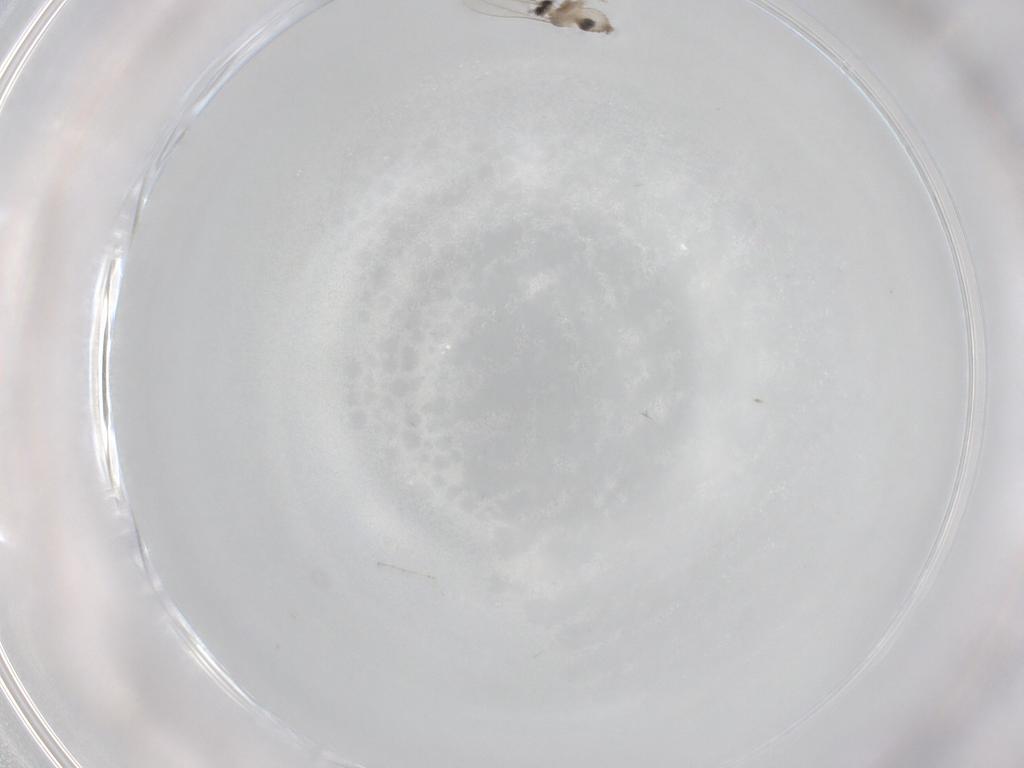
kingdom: Animalia
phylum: Arthropoda
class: Insecta
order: Diptera
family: Cecidomyiidae
